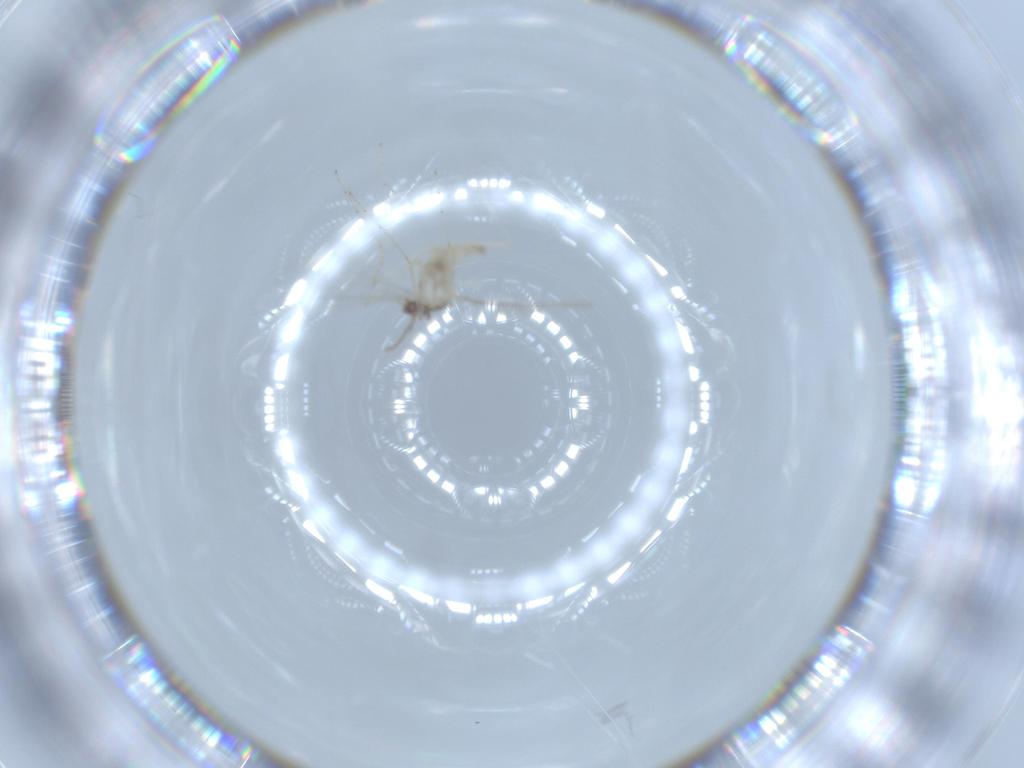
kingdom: Animalia
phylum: Arthropoda
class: Insecta
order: Diptera
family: Cecidomyiidae
